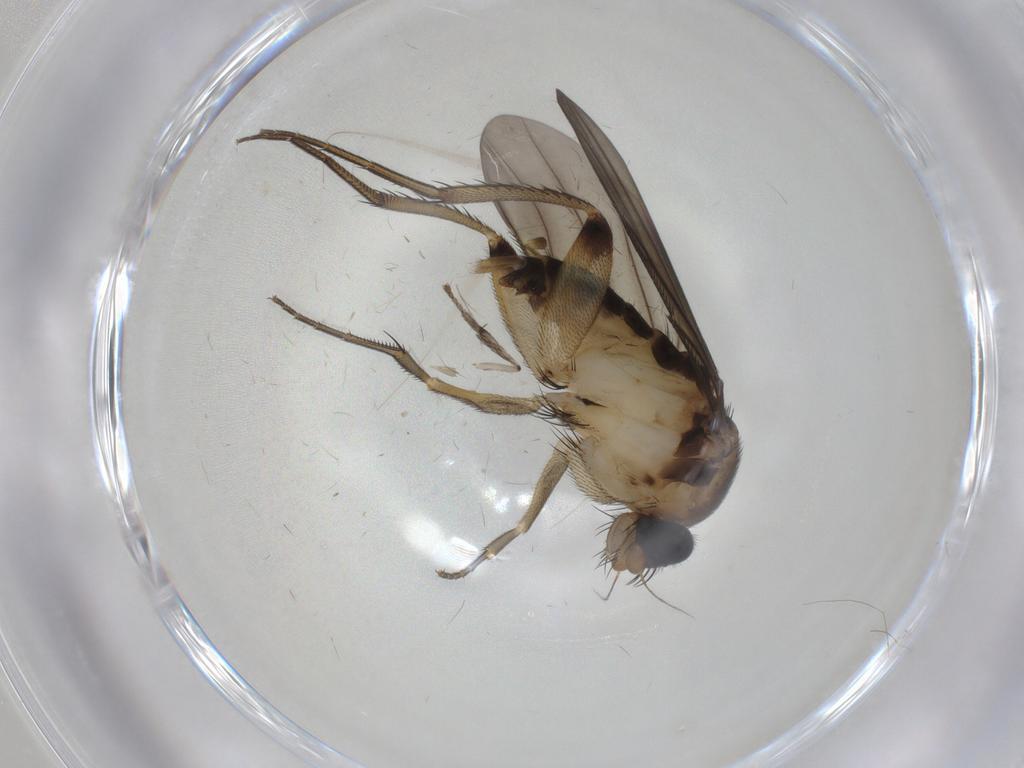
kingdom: Animalia
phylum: Arthropoda
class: Insecta
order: Diptera
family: Phoridae
